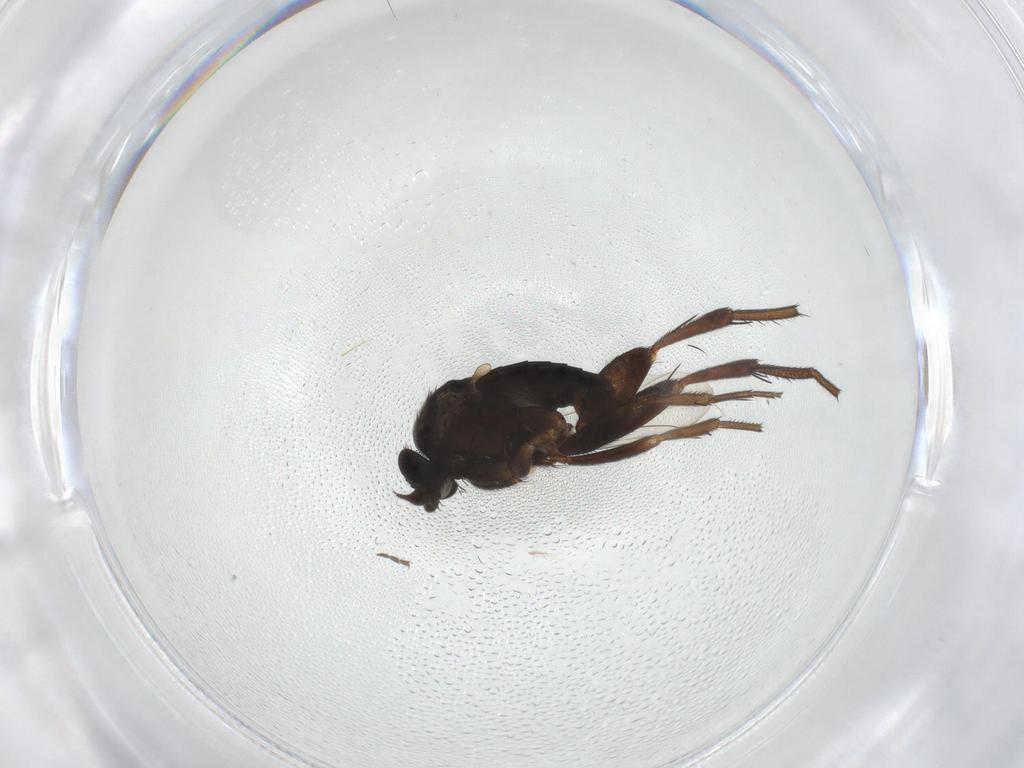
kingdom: Animalia
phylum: Arthropoda
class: Insecta
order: Diptera
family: Phoridae
